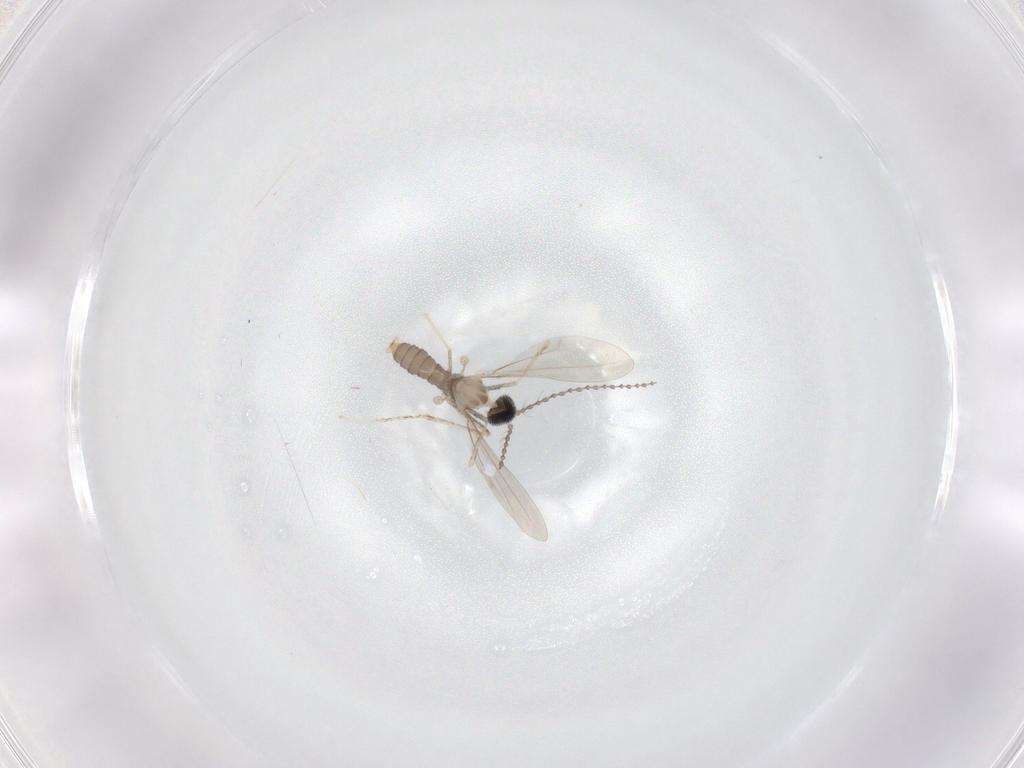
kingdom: Animalia
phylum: Arthropoda
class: Insecta
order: Diptera
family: Cecidomyiidae
